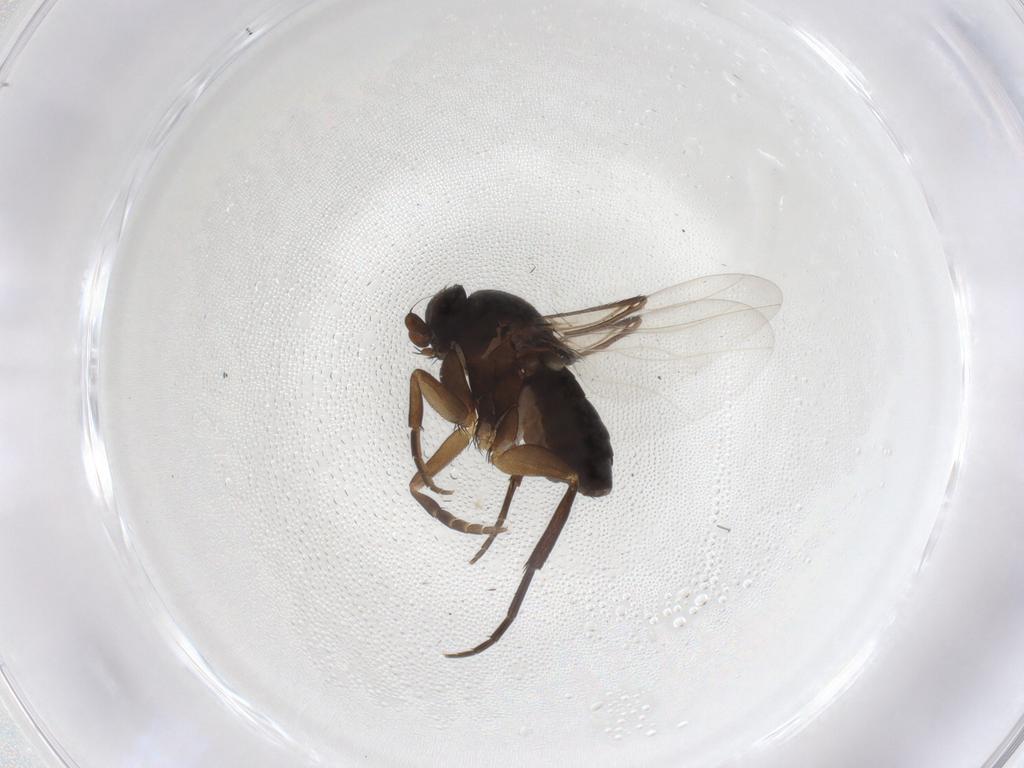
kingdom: Animalia
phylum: Arthropoda
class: Insecta
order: Diptera
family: Phoridae
